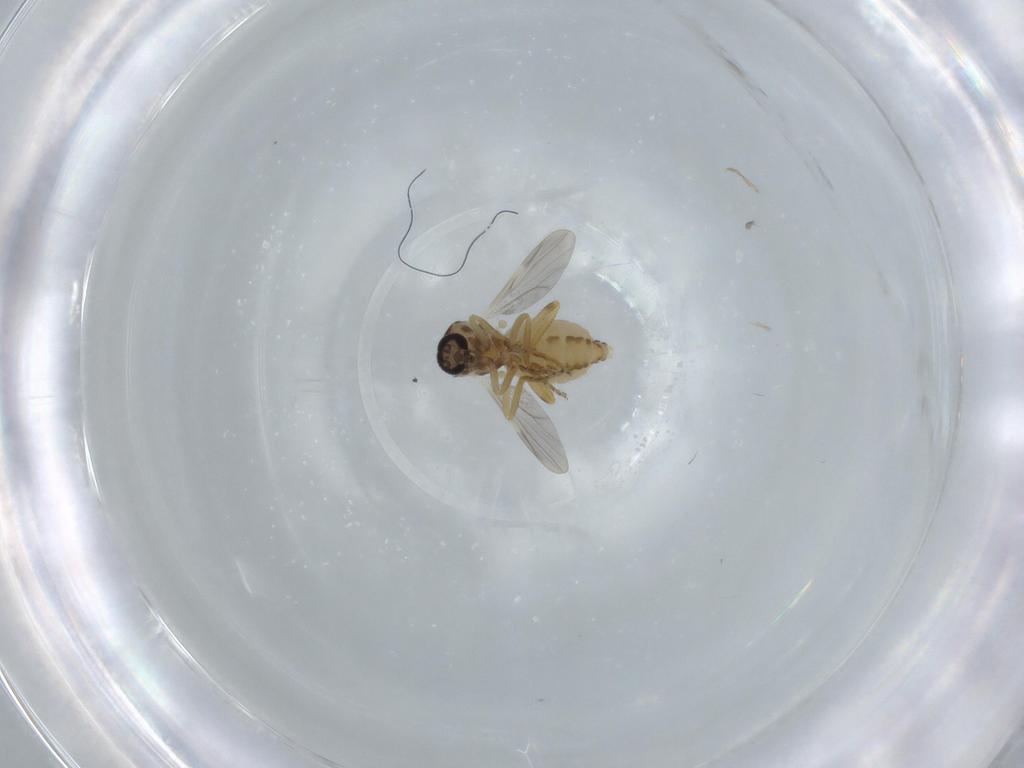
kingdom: Animalia
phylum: Arthropoda
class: Insecta
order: Diptera
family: Ceratopogonidae
